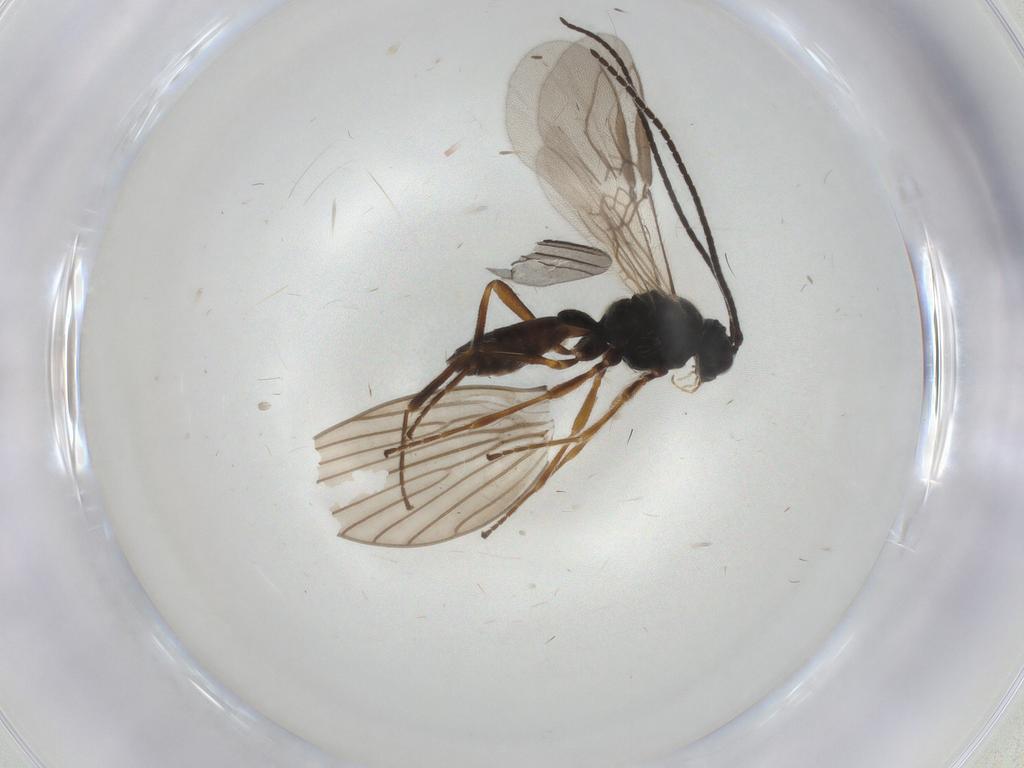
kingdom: Animalia
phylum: Arthropoda
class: Insecta
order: Hymenoptera
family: Braconidae
